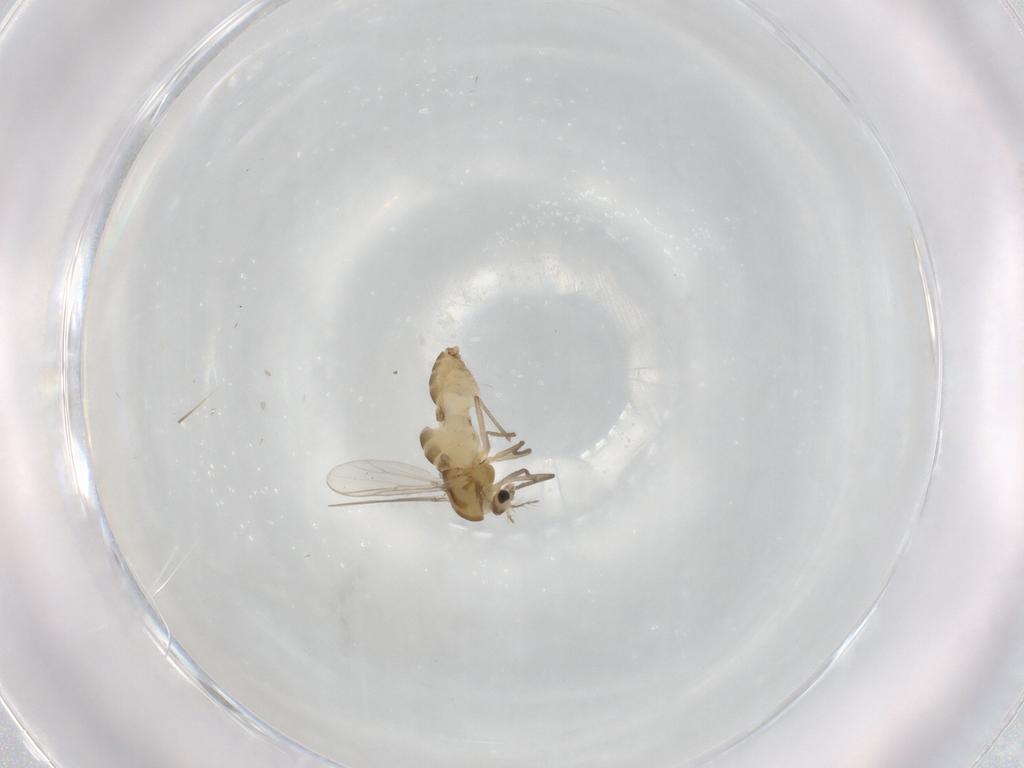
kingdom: Animalia
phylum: Arthropoda
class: Insecta
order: Diptera
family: Chironomidae
